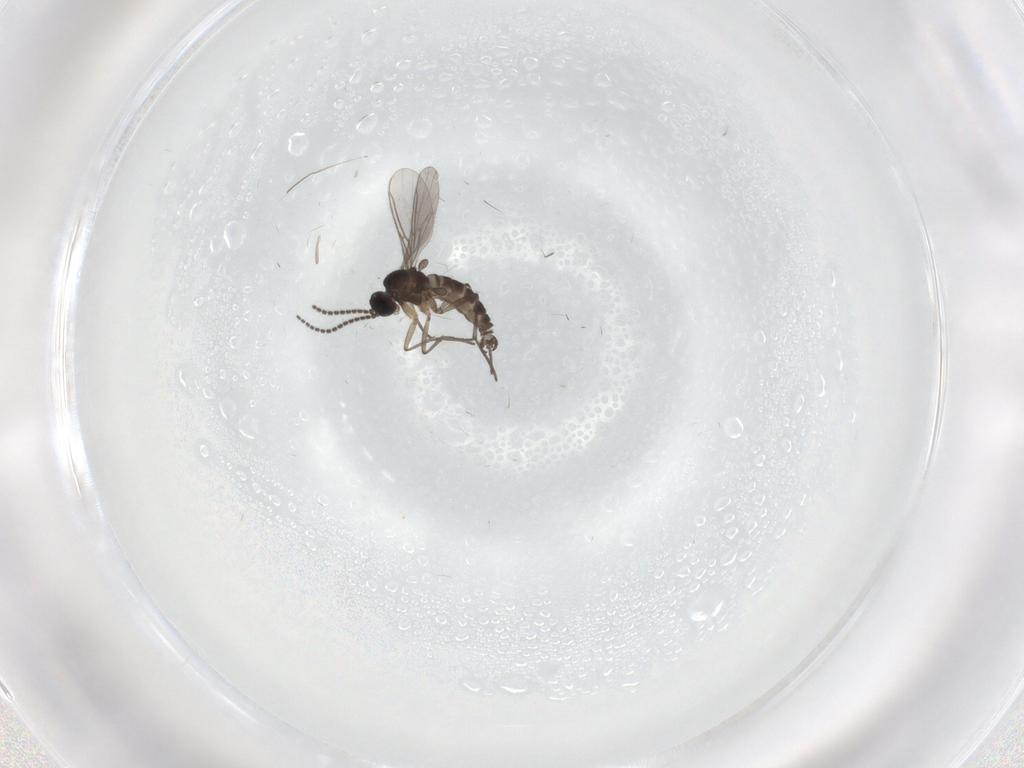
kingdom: Animalia
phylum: Arthropoda
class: Insecta
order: Diptera
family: Sciaridae
